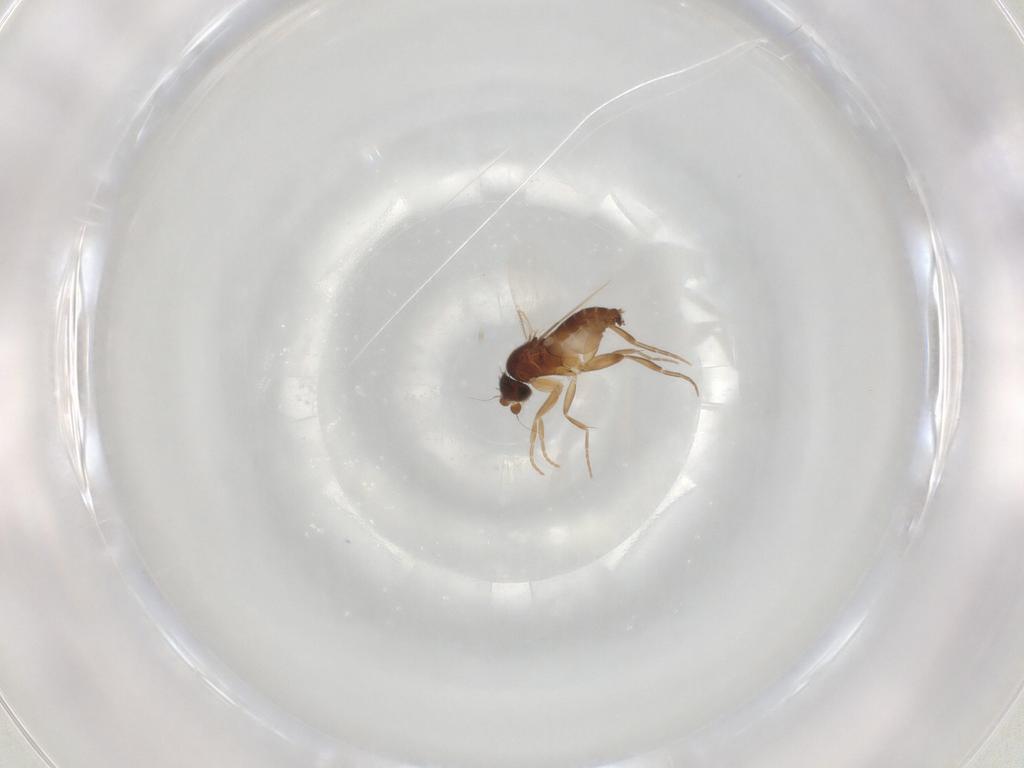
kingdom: Animalia
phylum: Arthropoda
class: Insecta
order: Diptera
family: Phoridae
